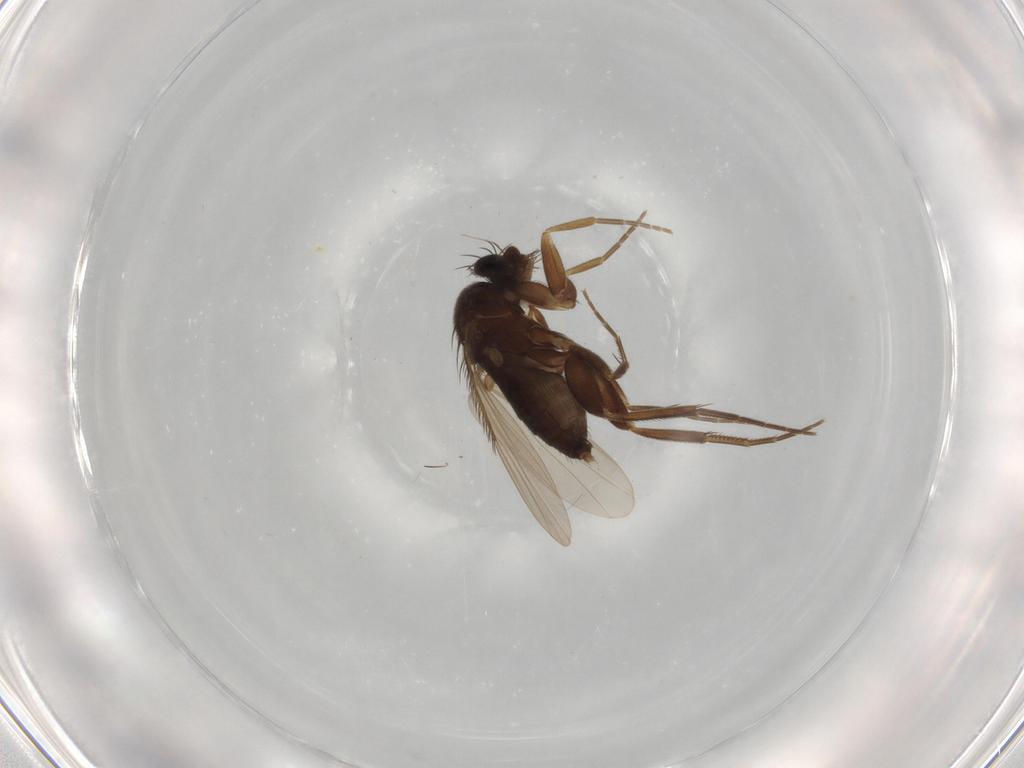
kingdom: Animalia
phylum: Arthropoda
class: Insecta
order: Diptera
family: Phoridae
